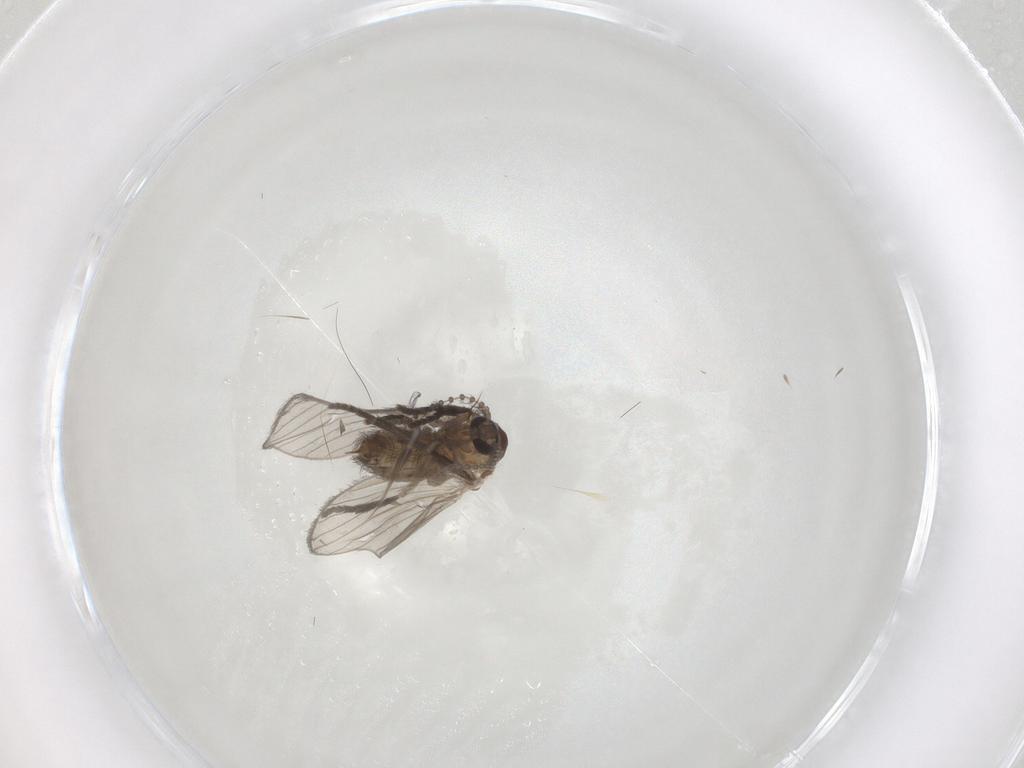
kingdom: Animalia
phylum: Arthropoda
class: Insecta
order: Diptera
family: Psychodidae
